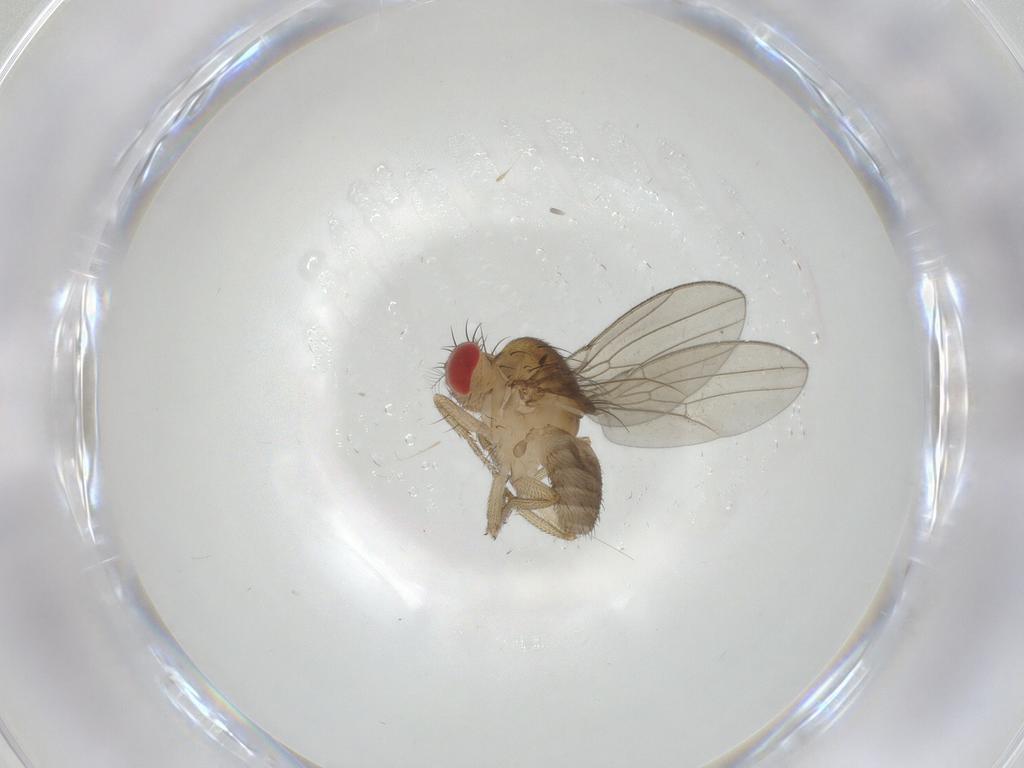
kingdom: Animalia
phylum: Arthropoda
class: Insecta
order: Diptera
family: Drosophilidae
